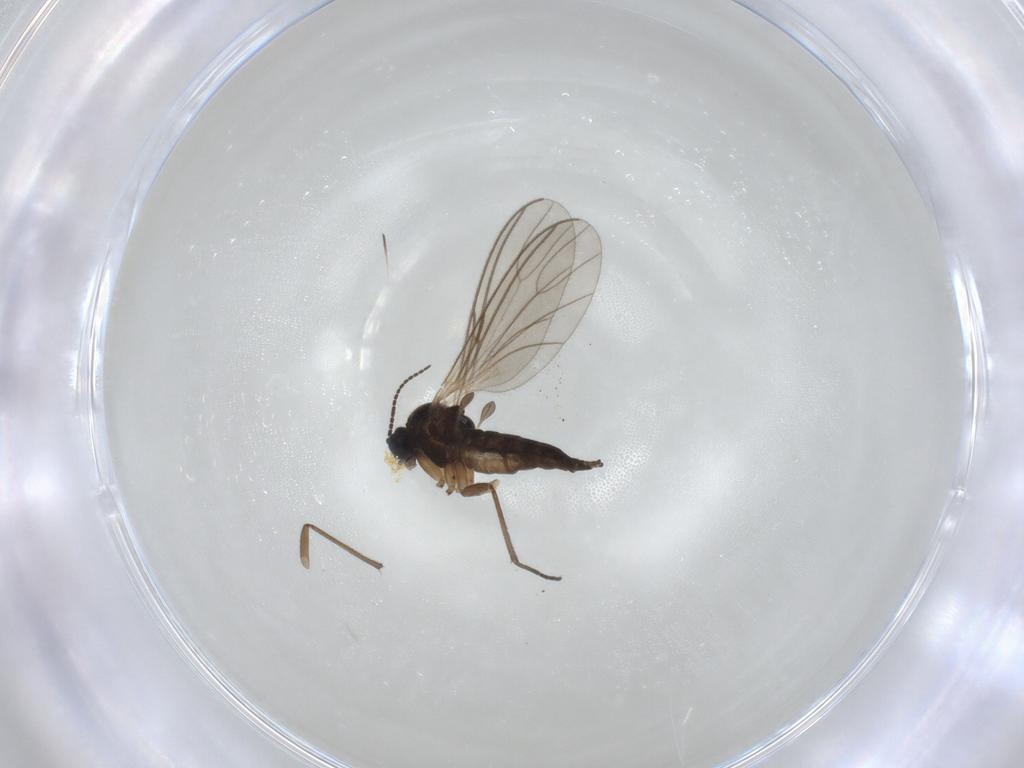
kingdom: Animalia
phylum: Arthropoda
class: Insecta
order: Diptera
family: Sciaridae
